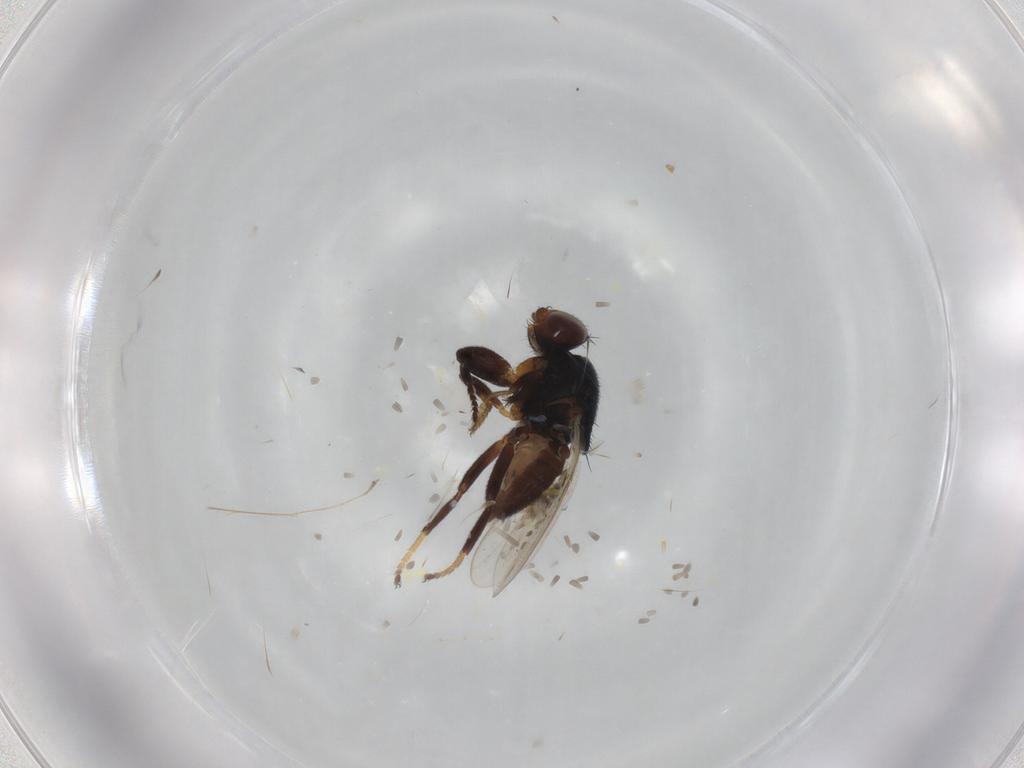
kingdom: Animalia
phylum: Arthropoda
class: Insecta
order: Diptera
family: Chloropidae
